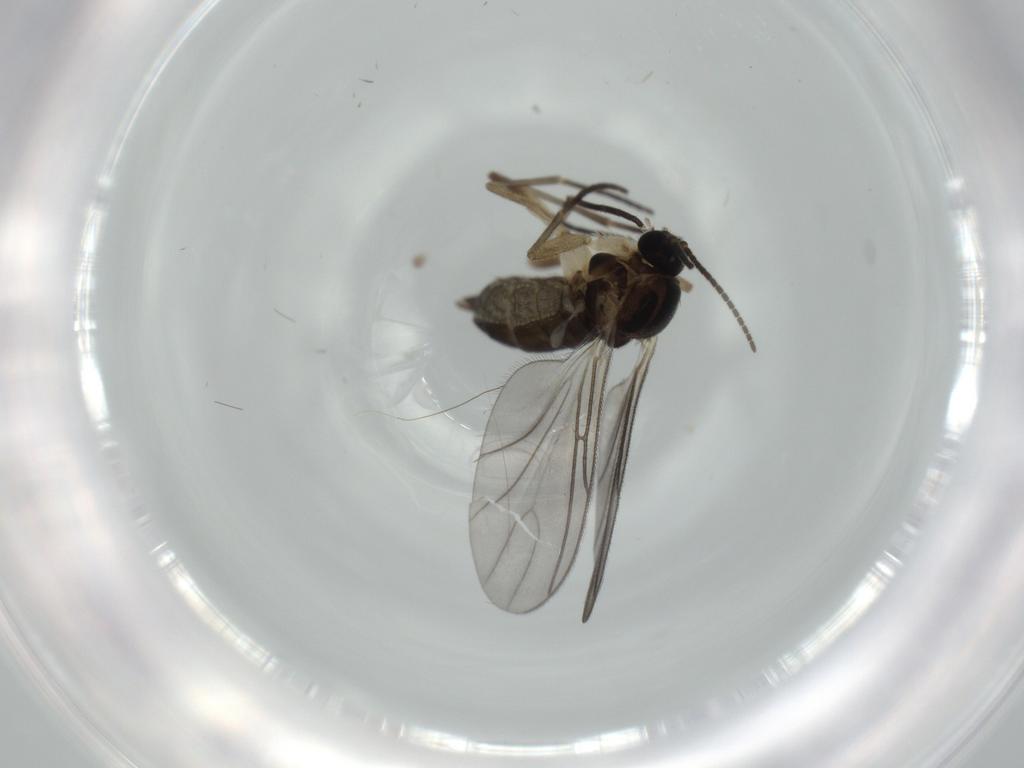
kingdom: Animalia
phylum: Arthropoda
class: Insecta
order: Diptera
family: Sciaridae
